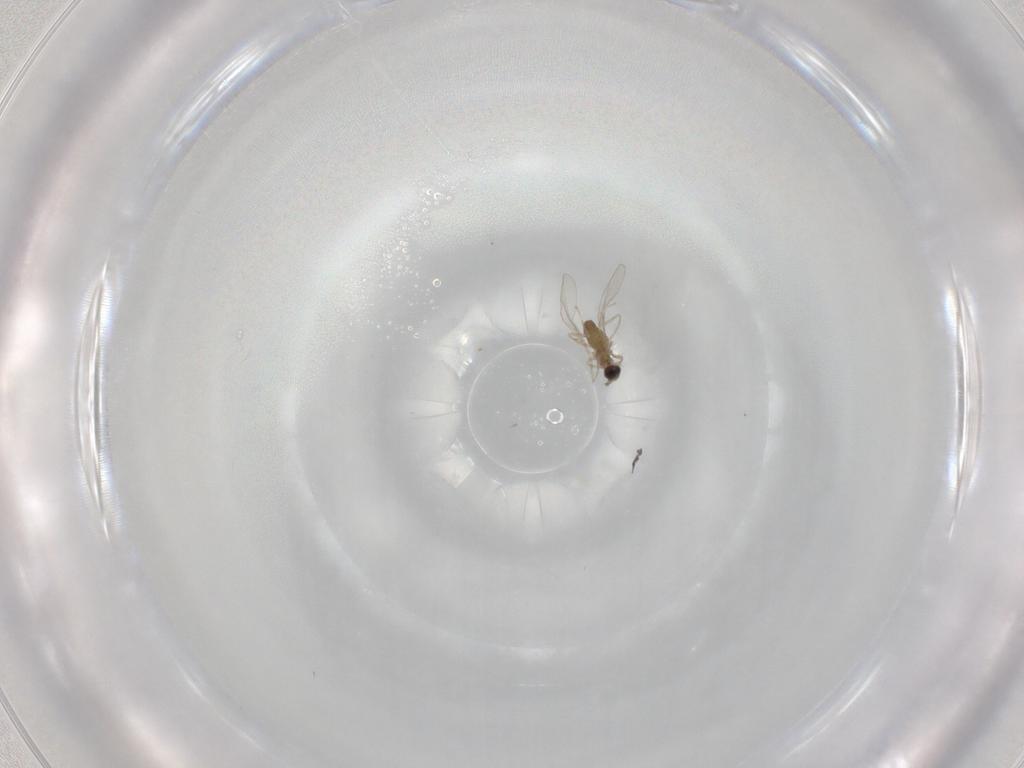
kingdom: Animalia
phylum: Arthropoda
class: Insecta
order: Diptera
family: Cecidomyiidae
